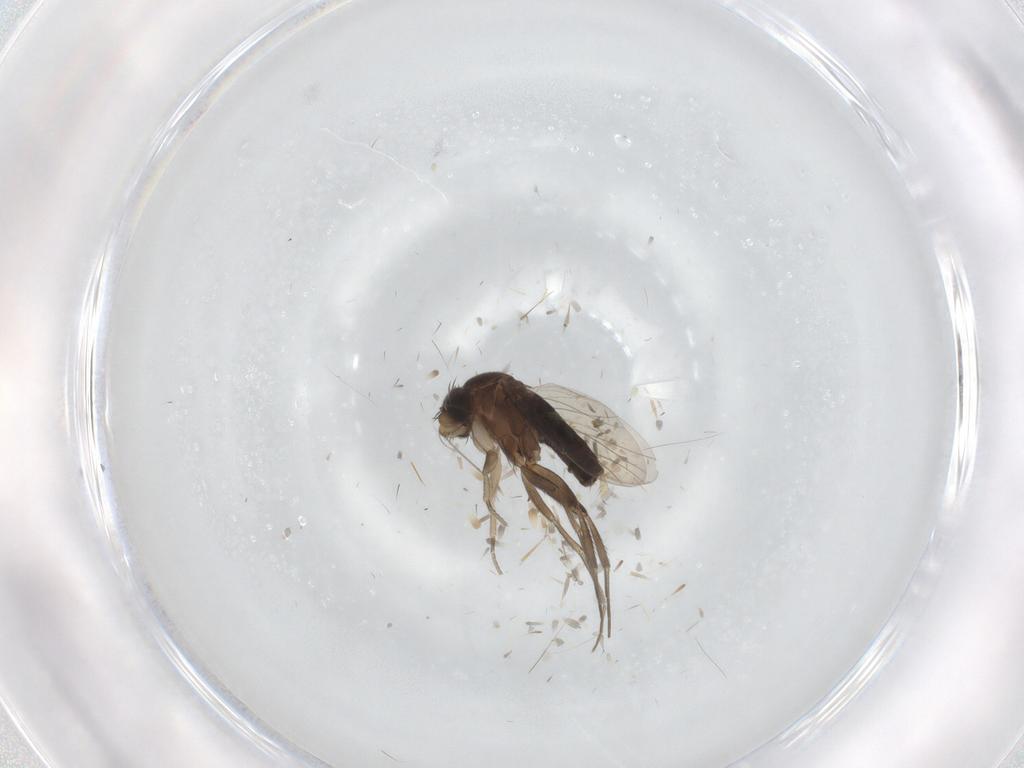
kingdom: Animalia
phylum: Arthropoda
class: Insecta
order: Diptera
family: Phoridae
